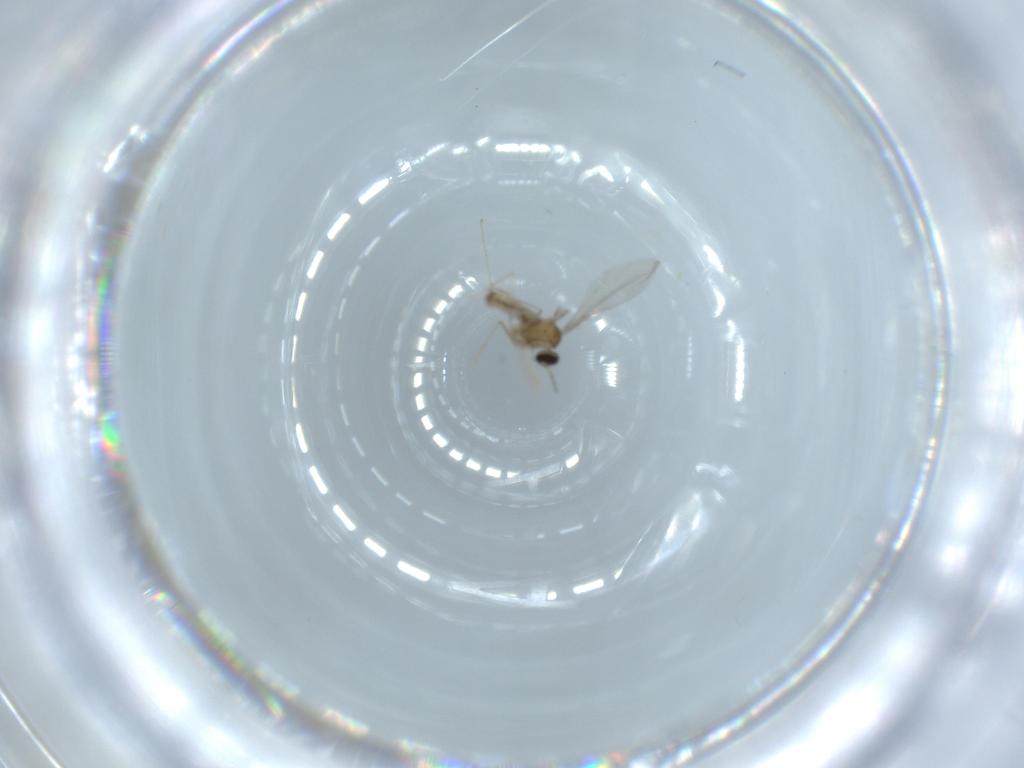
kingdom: Animalia
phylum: Arthropoda
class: Insecta
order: Diptera
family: Cecidomyiidae
